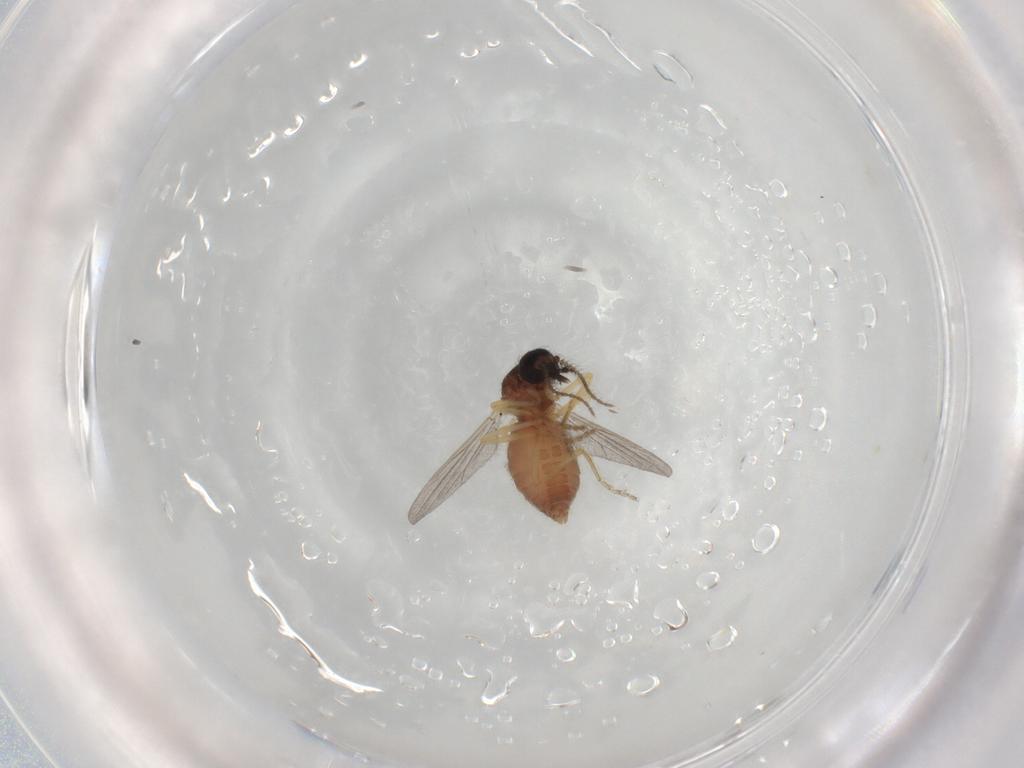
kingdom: Animalia
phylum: Arthropoda
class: Insecta
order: Diptera
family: Ceratopogonidae
